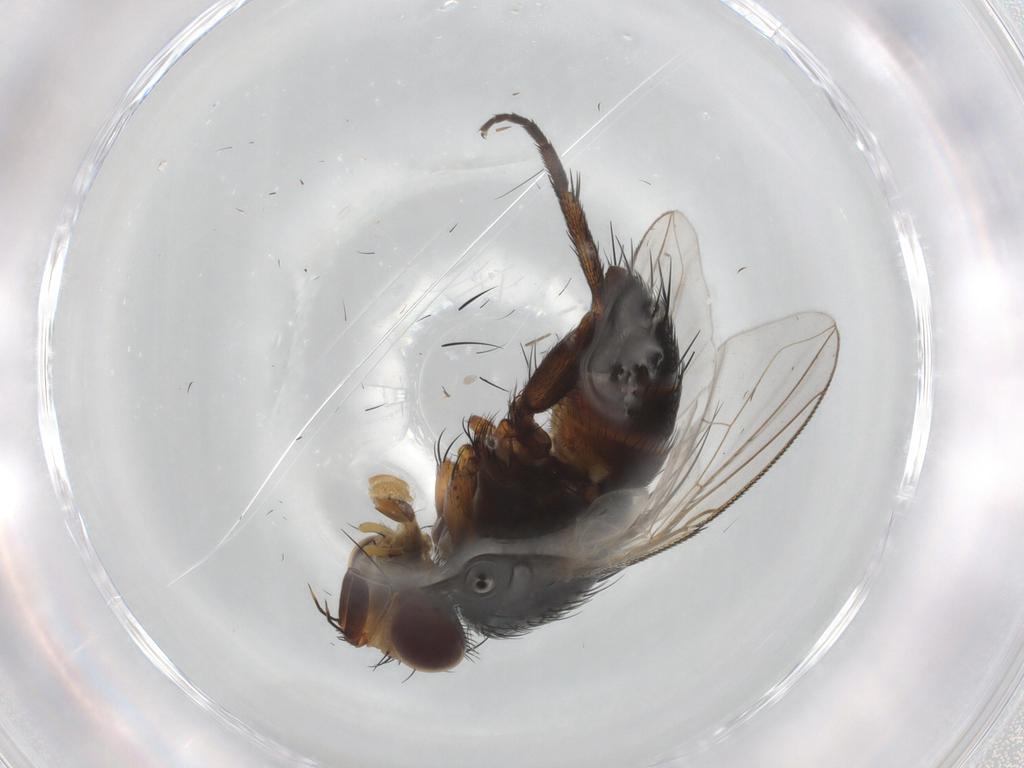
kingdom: Animalia
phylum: Arthropoda
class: Insecta
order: Diptera
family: Tachinidae
